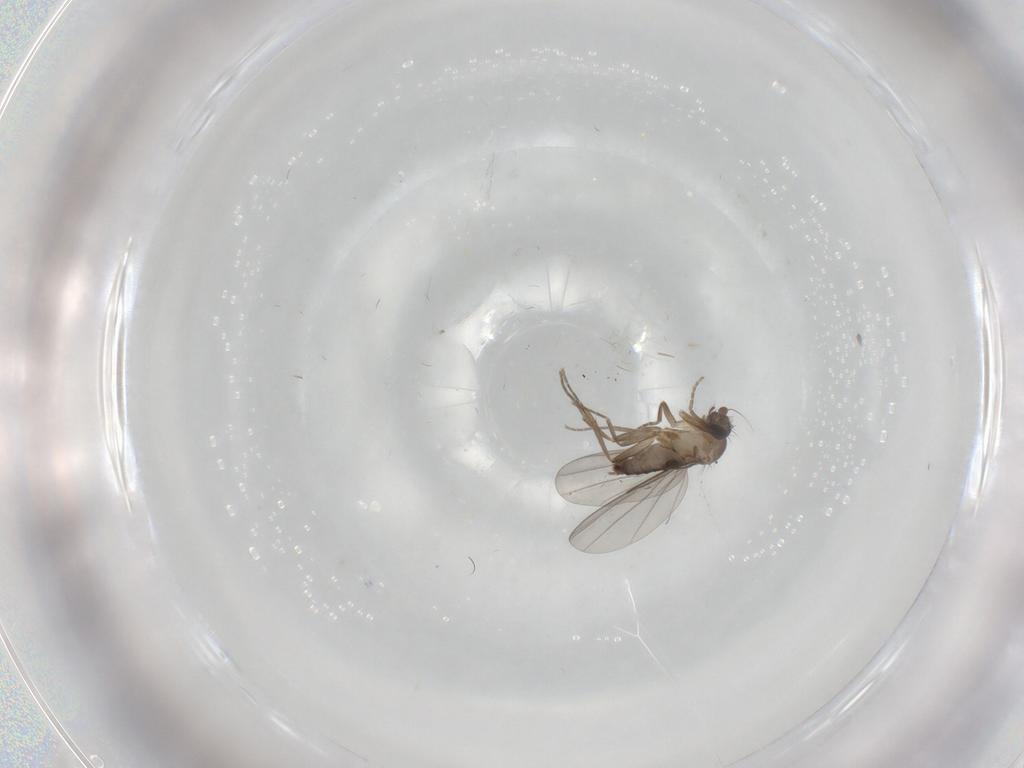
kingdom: Animalia
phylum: Arthropoda
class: Insecta
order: Diptera
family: Phoridae
